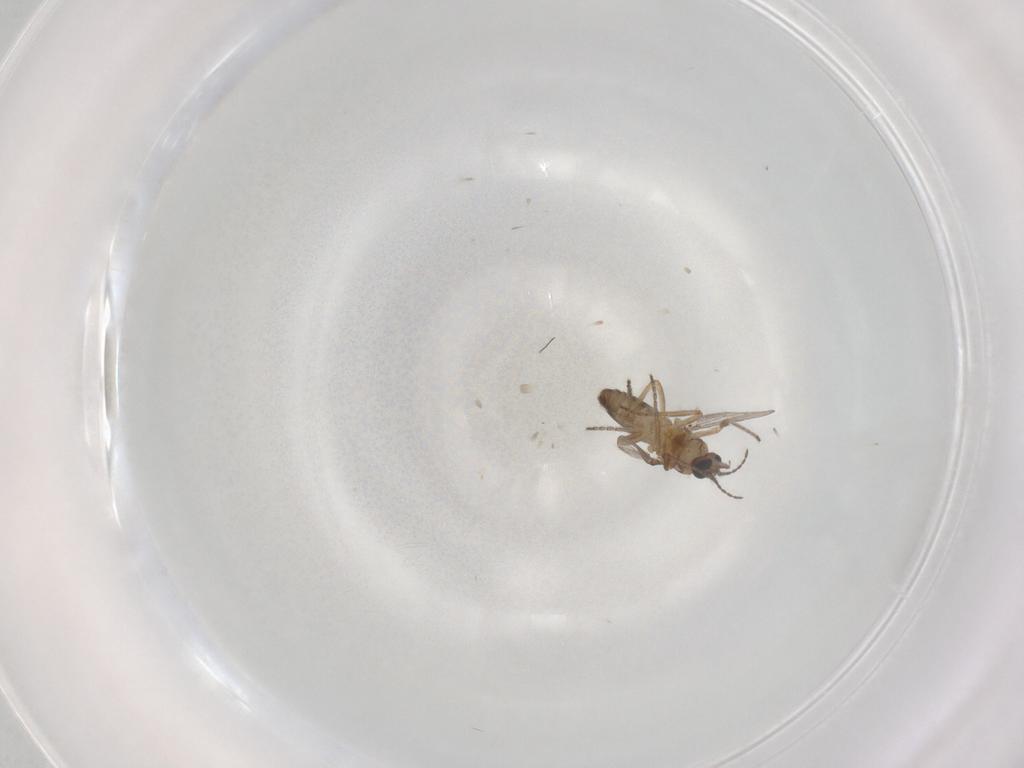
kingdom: Animalia
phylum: Arthropoda
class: Insecta
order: Diptera
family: Ceratopogonidae
